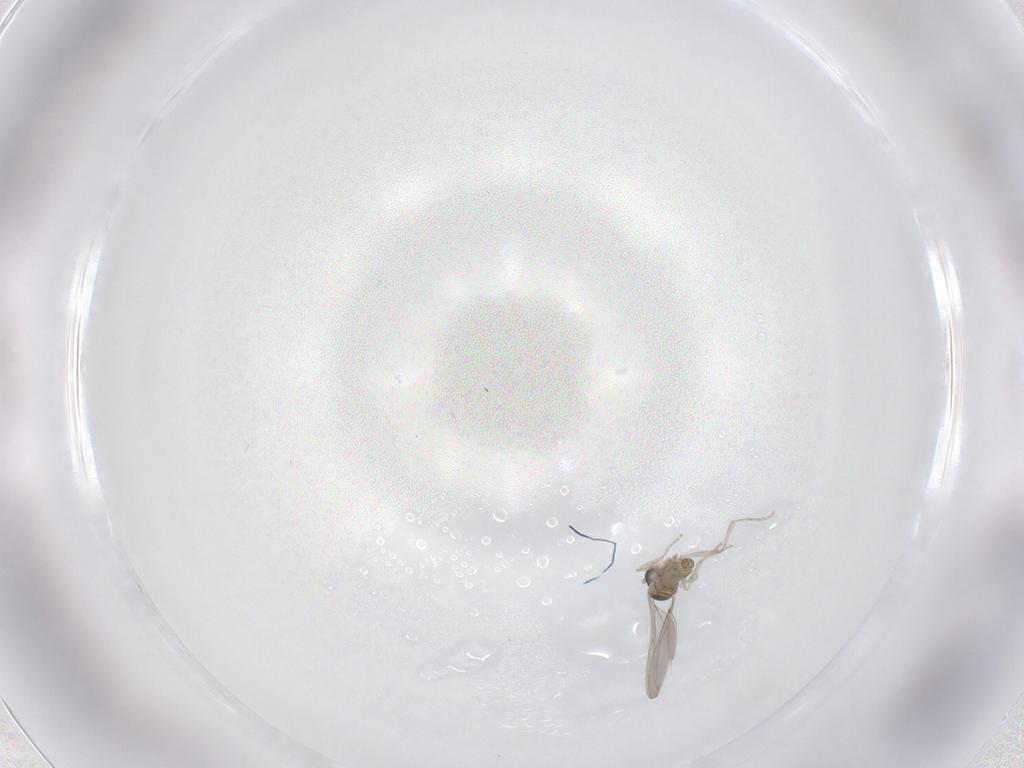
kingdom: Animalia
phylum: Arthropoda
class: Insecta
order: Diptera
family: Cecidomyiidae
